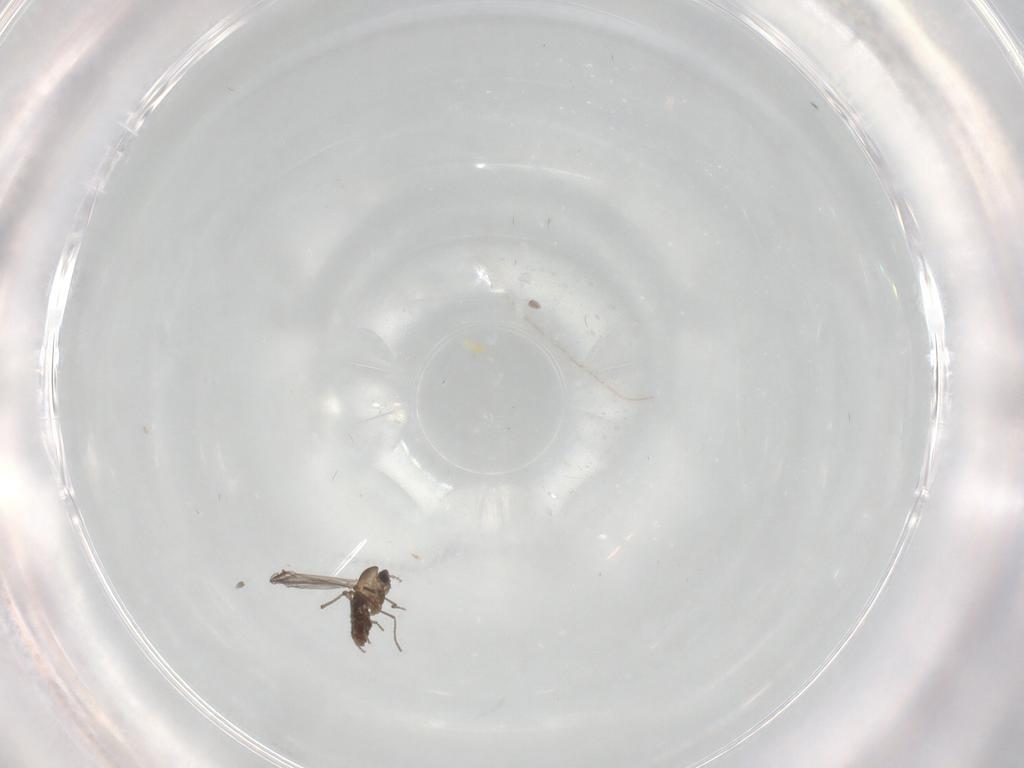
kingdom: Animalia
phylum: Arthropoda
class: Insecta
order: Diptera
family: Chironomidae
